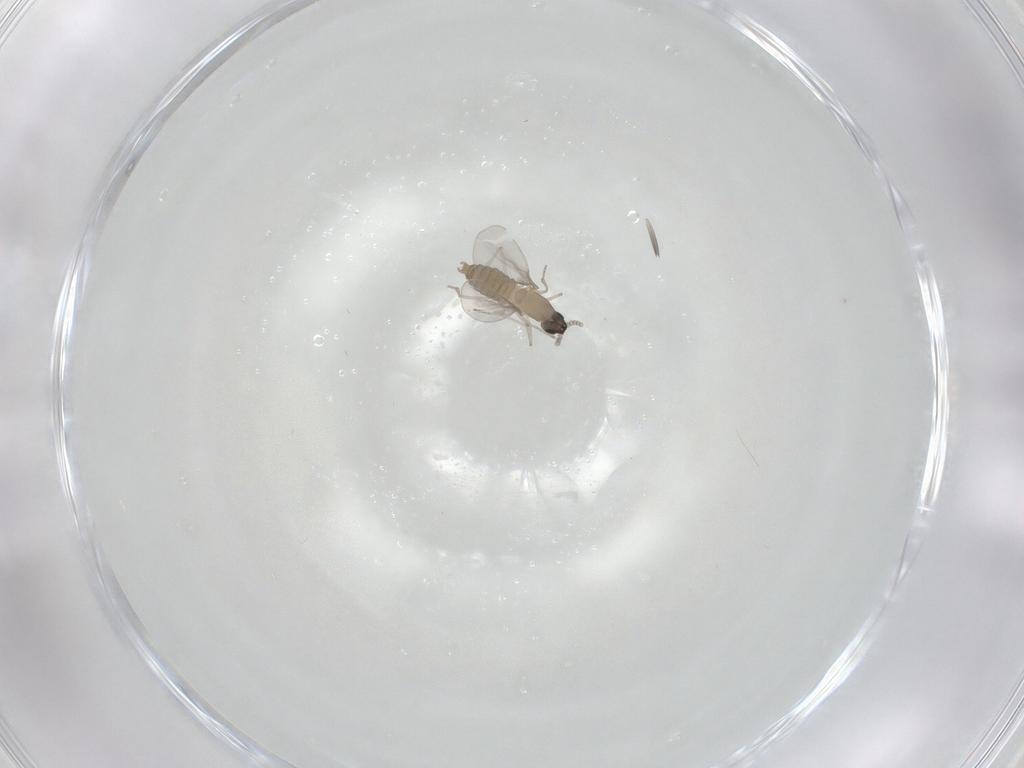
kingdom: Animalia
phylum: Arthropoda
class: Insecta
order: Diptera
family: Cecidomyiidae
